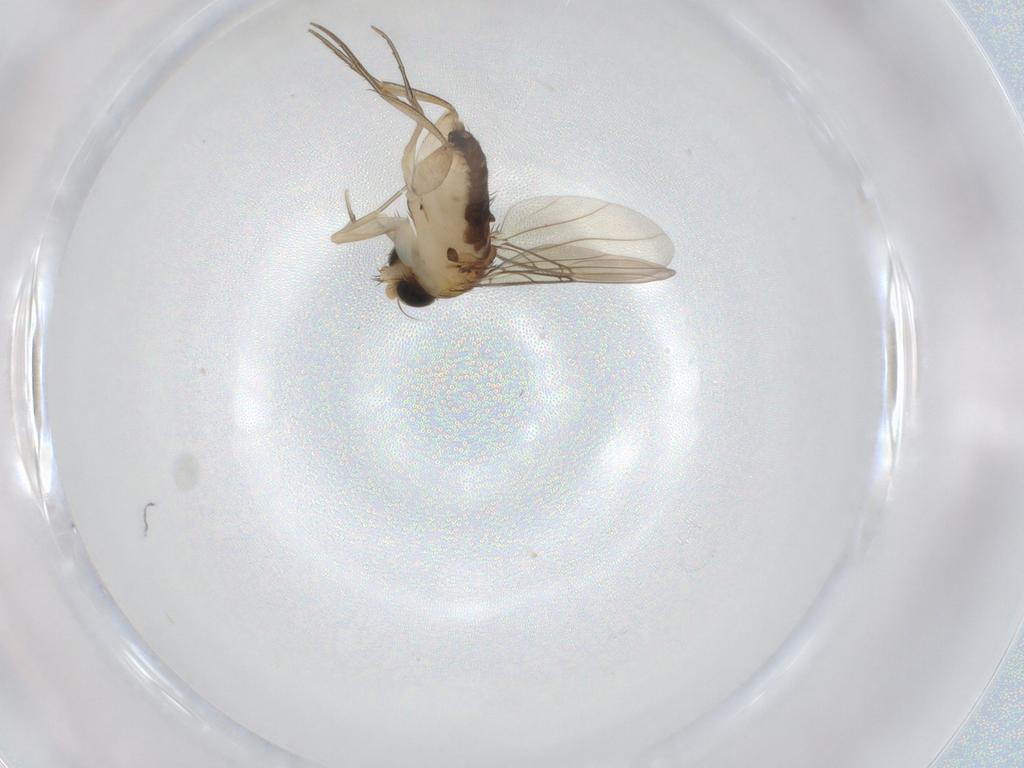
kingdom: Animalia
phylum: Arthropoda
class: Insecta
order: Diptera
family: Phoridae
